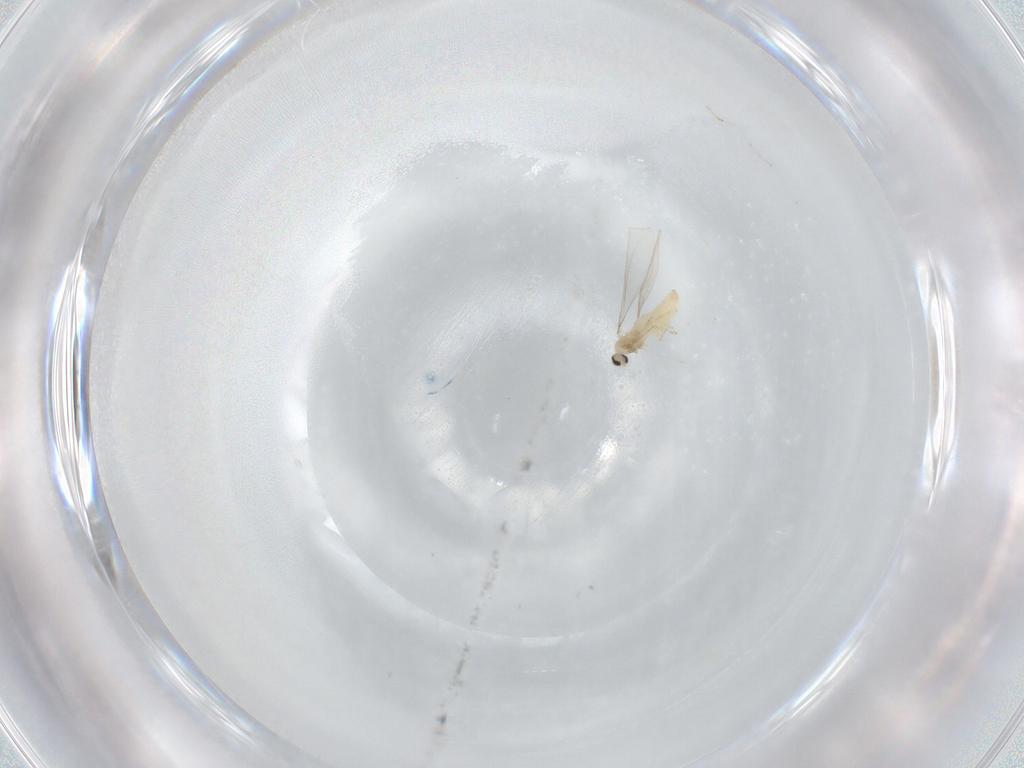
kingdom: Animalia
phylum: Arthropoda
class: Insecta
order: Diptera
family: Cecidomyiidae
